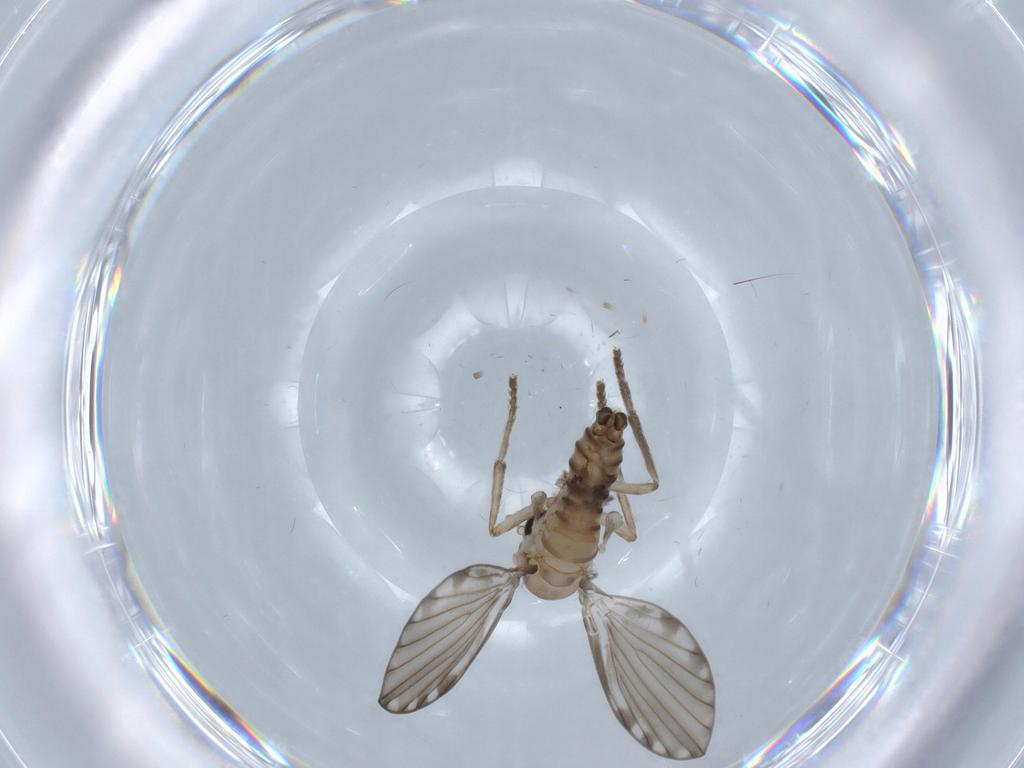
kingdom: Animalia
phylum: Arthropoda
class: Insecta
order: Diptera
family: Psychodidae
